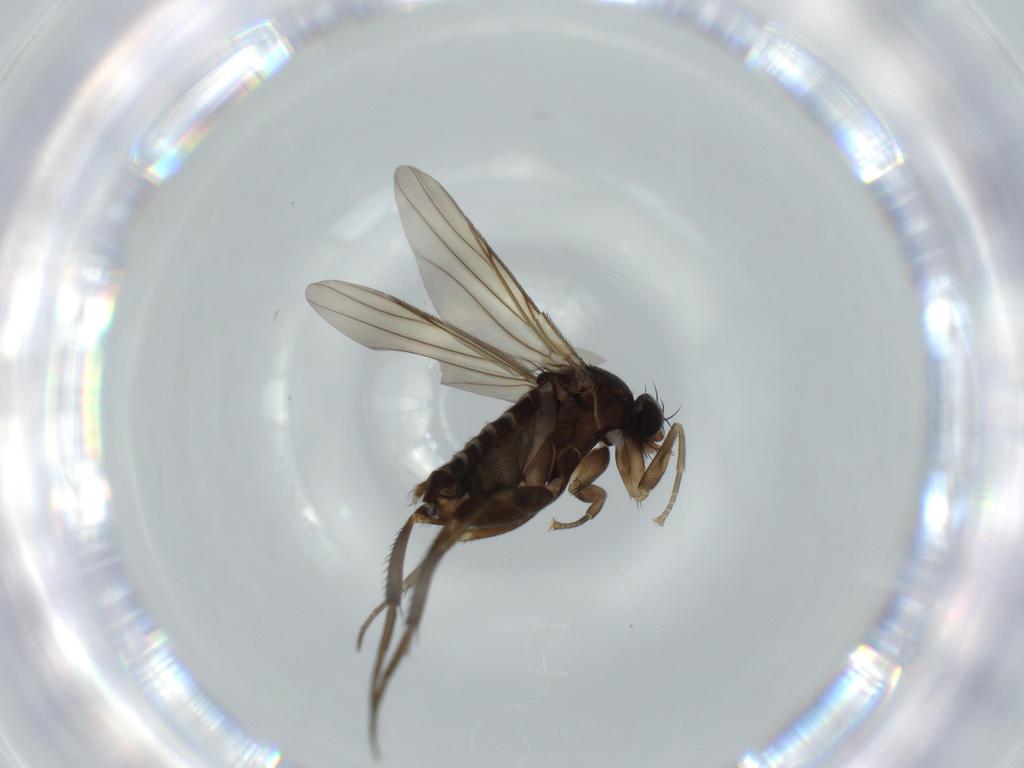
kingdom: Animalia
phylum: Arthropoda
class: Insecta
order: Diptera
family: Phoridae
